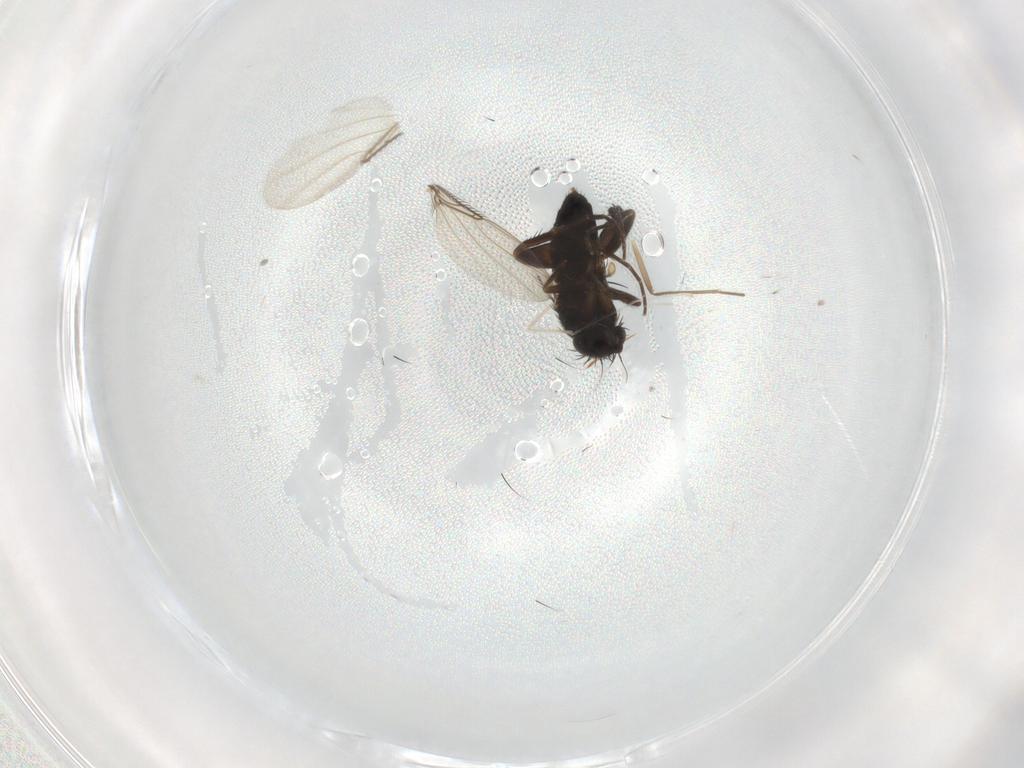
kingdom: Animalia
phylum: Arthropoda
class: Insecta
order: Diptera
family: Phoridae
